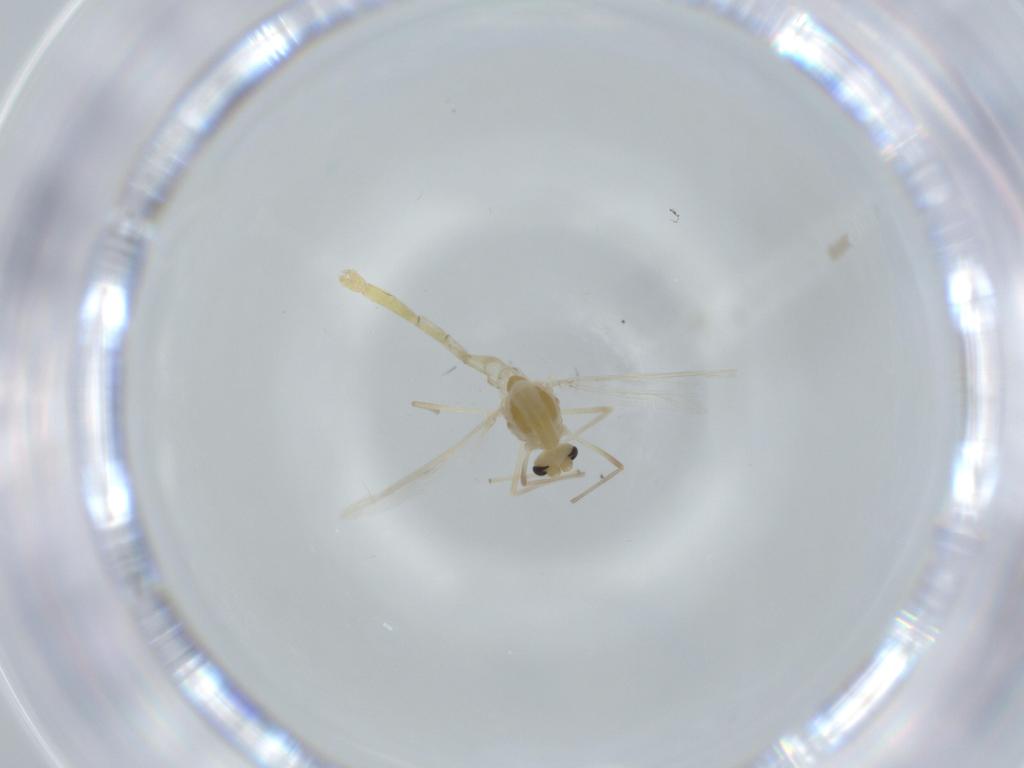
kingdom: Animalia
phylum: Arthropoda
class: Insecta
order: Diptera
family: Chironomidae
